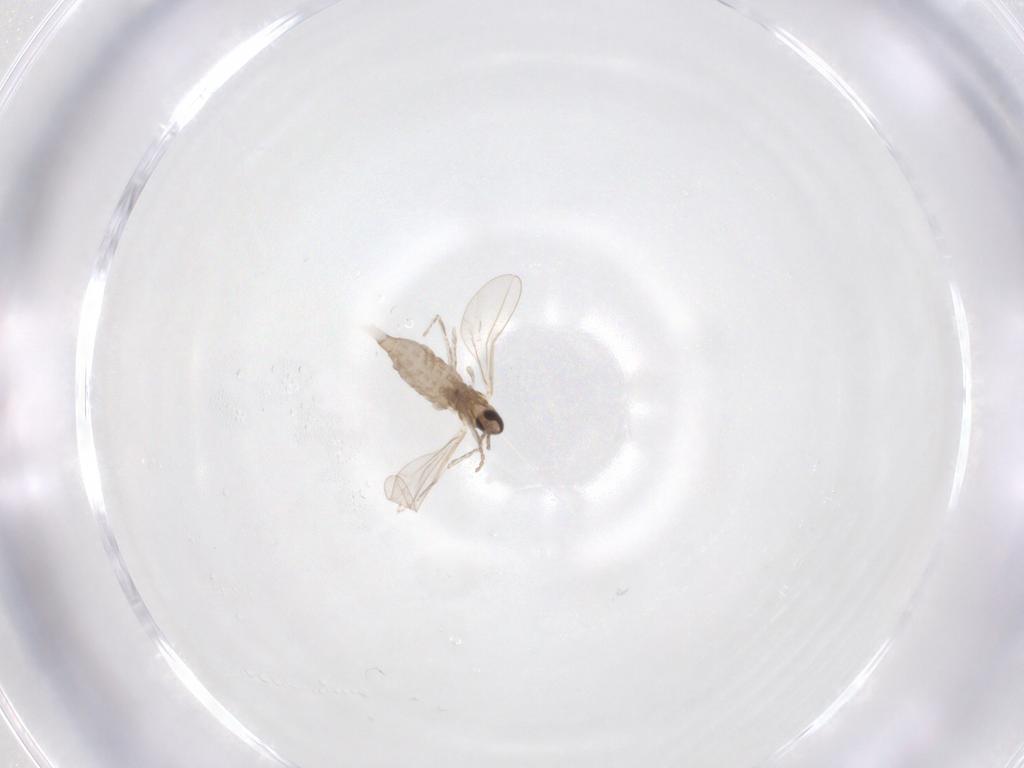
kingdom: Animalia
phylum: Arthropoda
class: Insecta
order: Diptera
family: Cecidomyiidae
